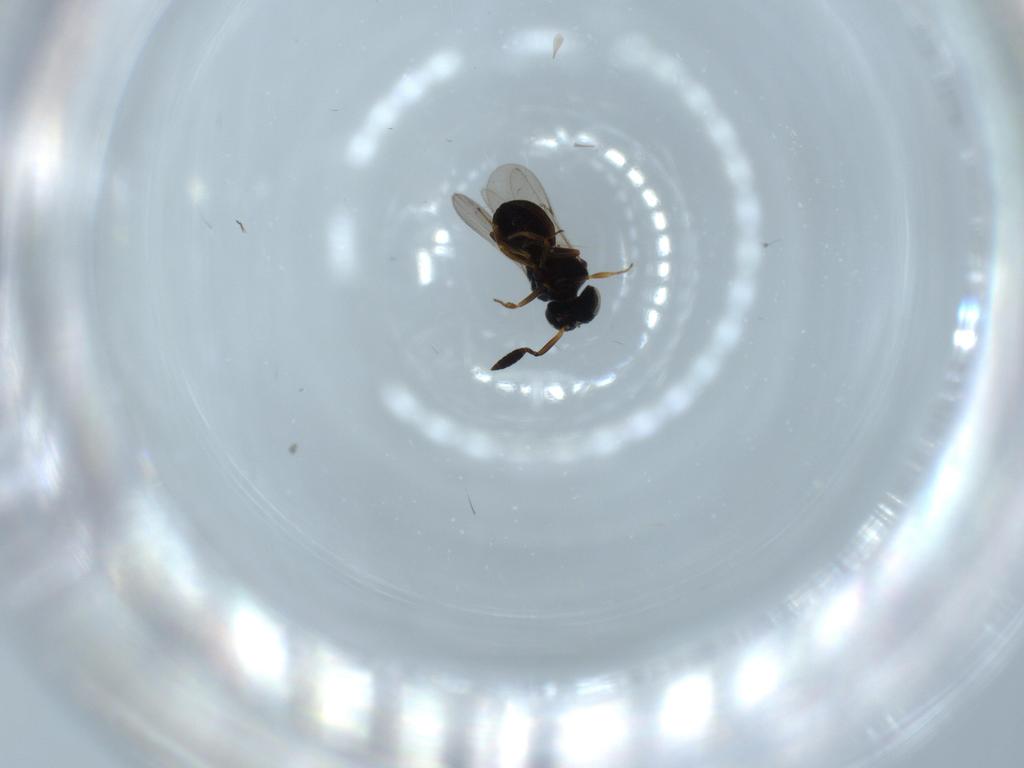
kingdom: Animalia
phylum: Arthropoda
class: Insecta
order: Hymenoptera
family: Scelionidae
